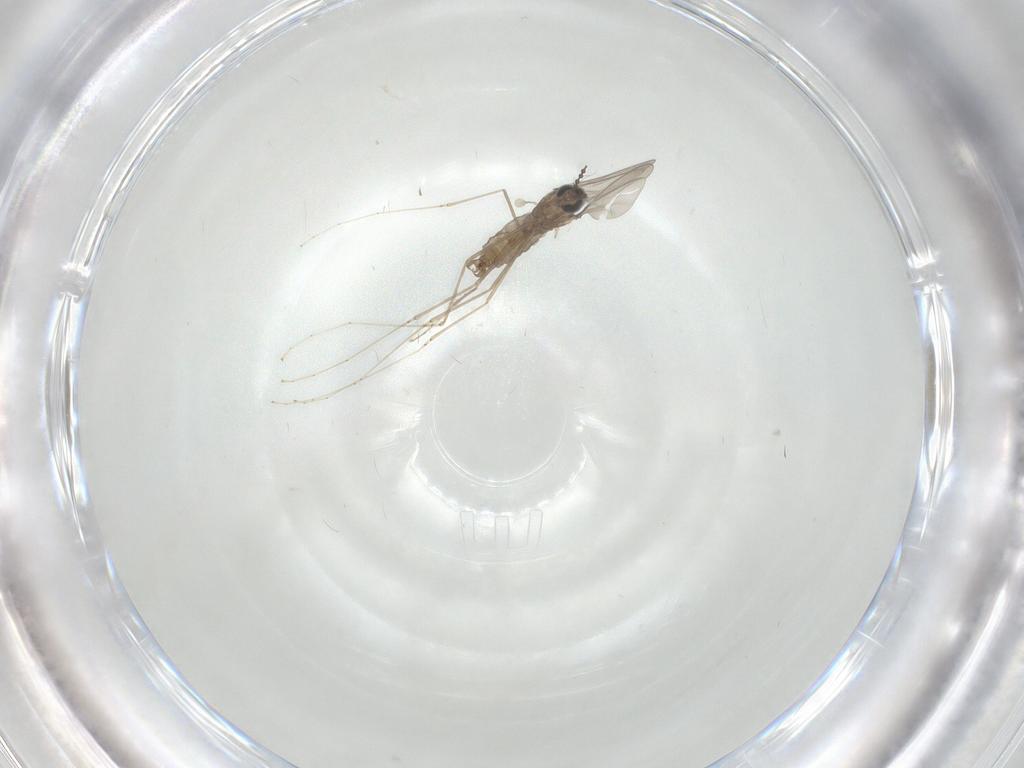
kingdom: Animalia
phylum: Arthropoda
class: Insecta
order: Diptera
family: Cecidomyiidae
